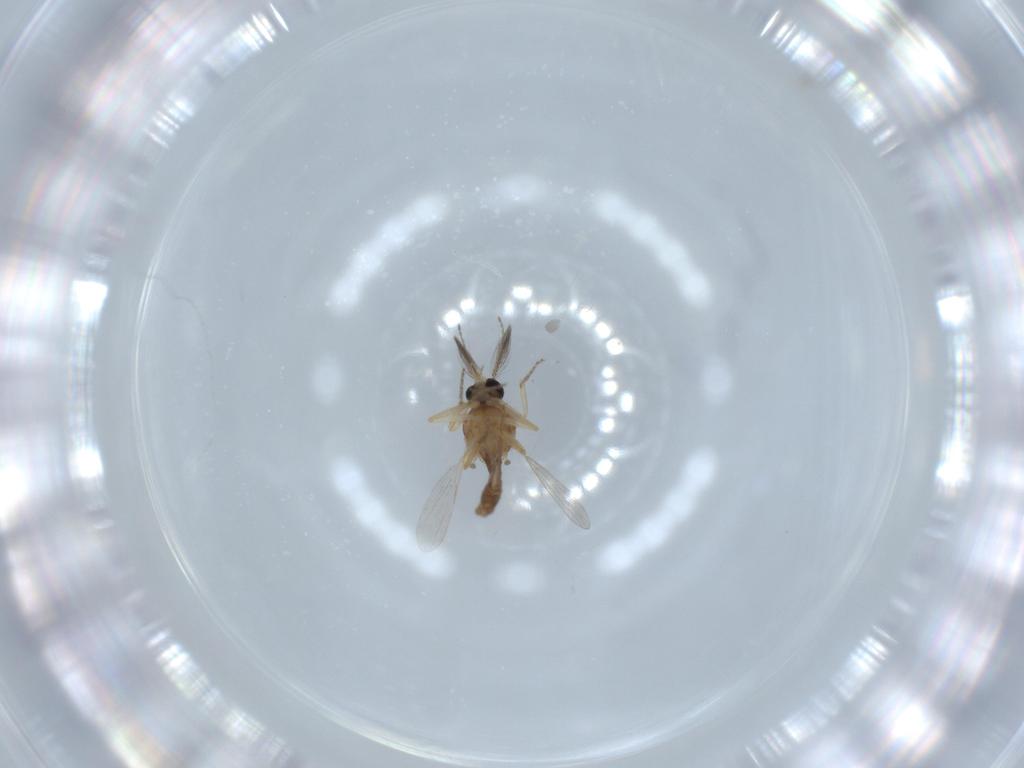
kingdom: Animalia
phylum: Arthropoda
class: Insecta
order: Diptera
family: Ceratopogonidae
